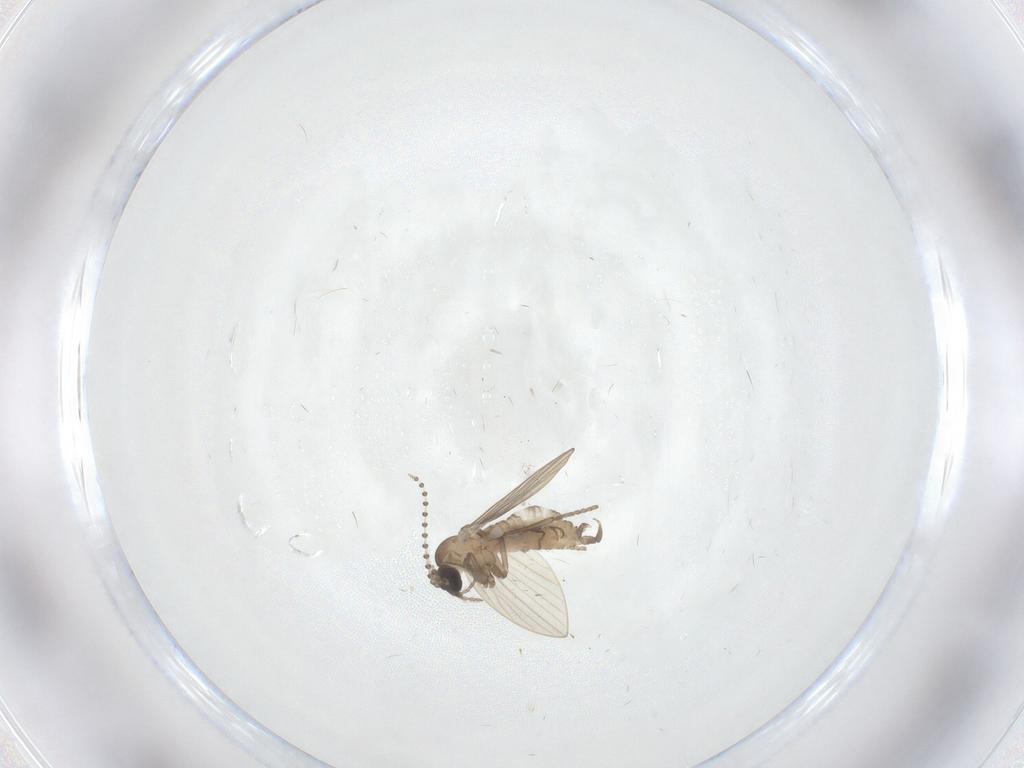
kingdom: Animalia
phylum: Arthropoda
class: Insecta
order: Diptera
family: Psychodidae
